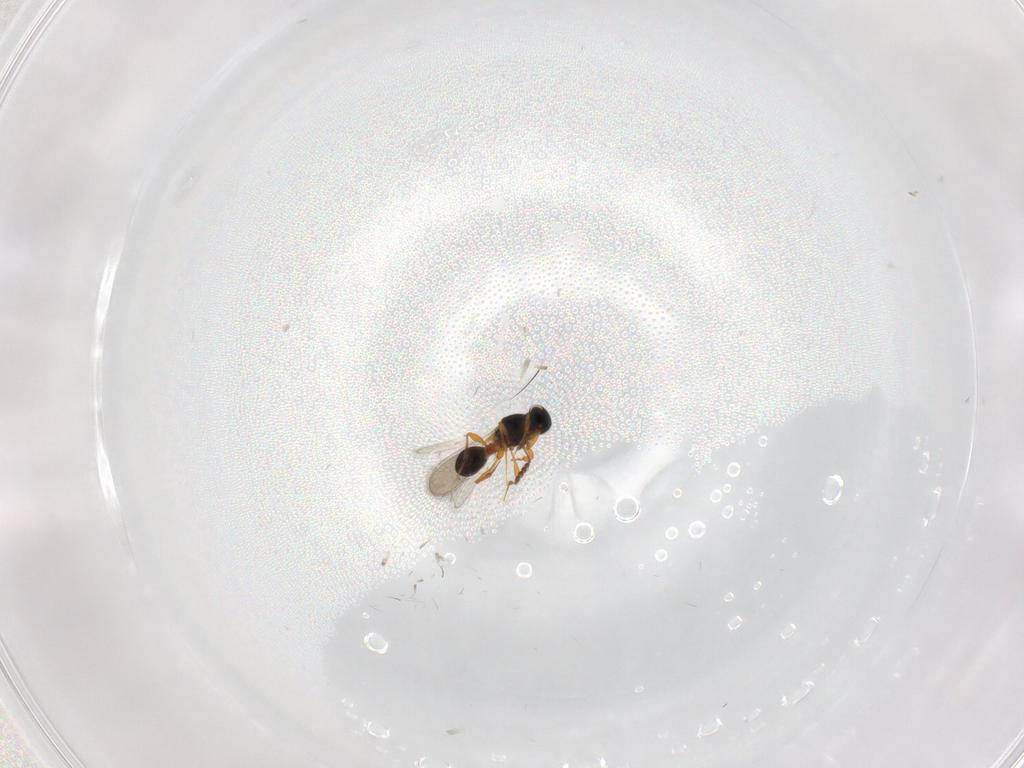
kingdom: Animalia
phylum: Arthropoda
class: Insecta
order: Hymenoptera
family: Platygastridae
